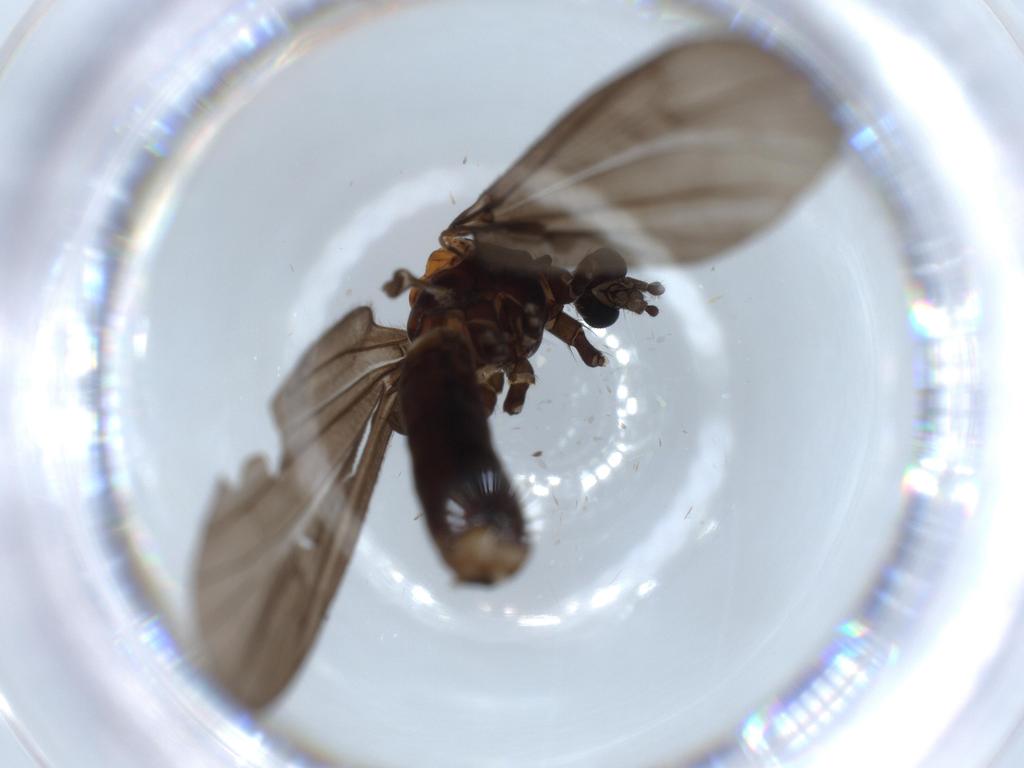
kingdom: Animalia
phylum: Arthropoda
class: Insecta
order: Diptera
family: Limoniidae
